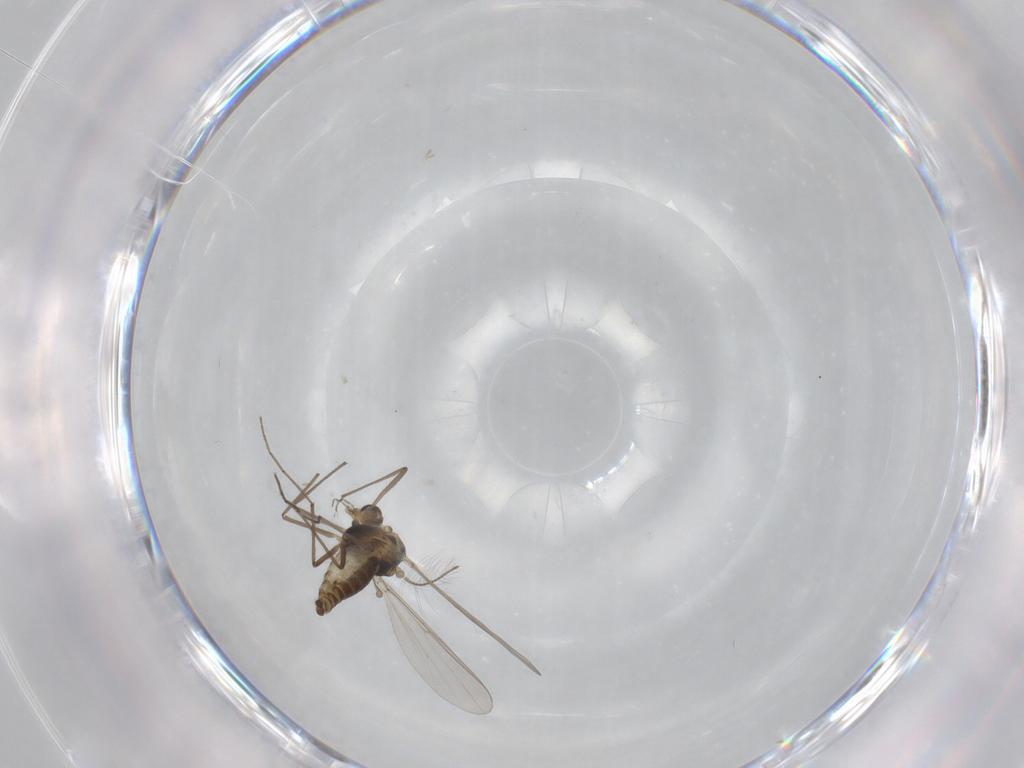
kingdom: Animalia
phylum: Arthropoda
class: Insecta
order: Diptera
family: Chironomidae
